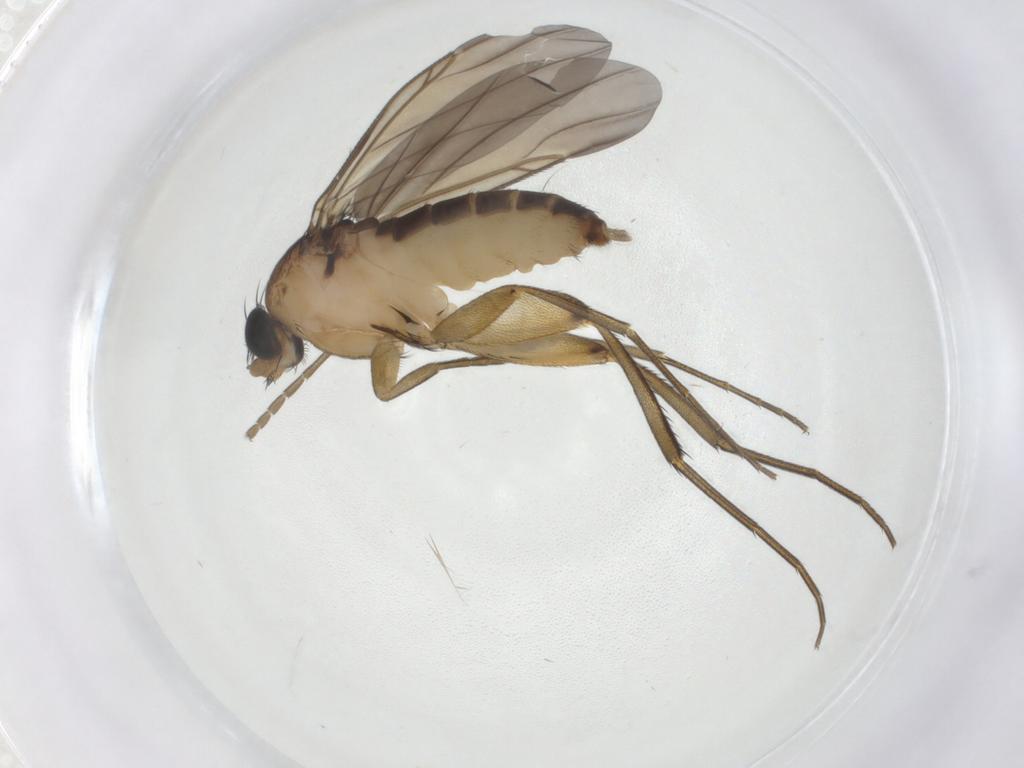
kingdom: Animalia
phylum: Arthropoda
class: Insecta
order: Diptera
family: Phoridae
